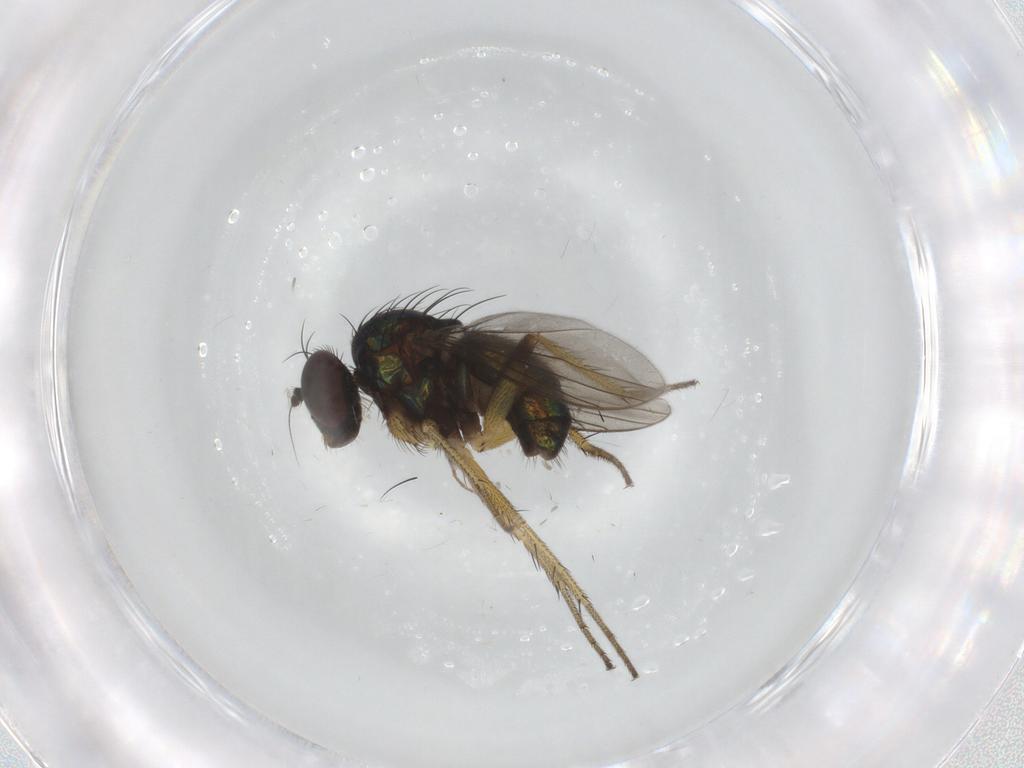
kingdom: Animalia
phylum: Arthropoda
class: Insecta
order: Diptera
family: Dolichopodidae
